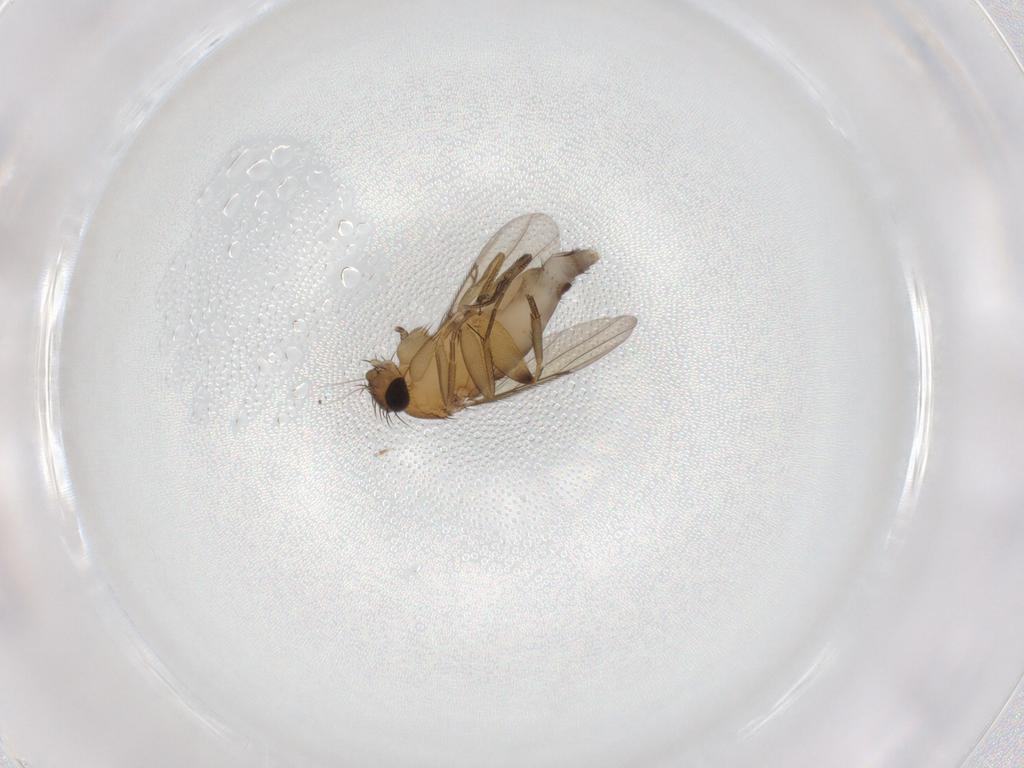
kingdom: Animalia
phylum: Arthropoda
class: Insecta
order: Diptera
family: Phoridae
